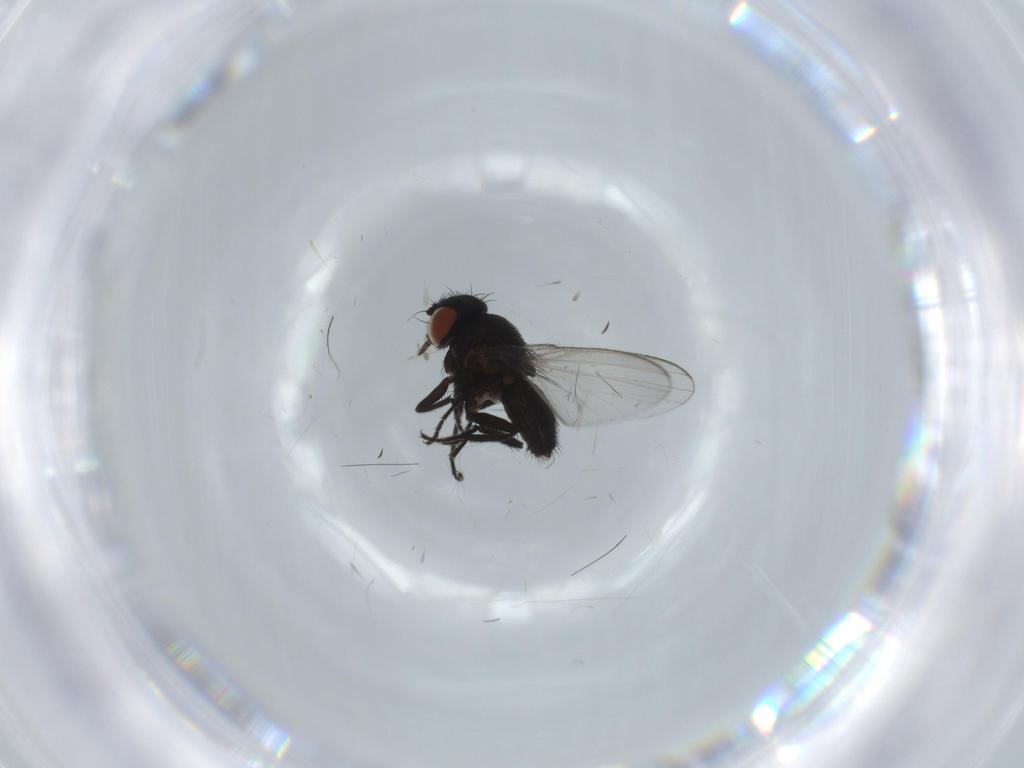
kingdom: Animalia
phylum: Arthropoda
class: Insecta
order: Diptera
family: Milichiidae
